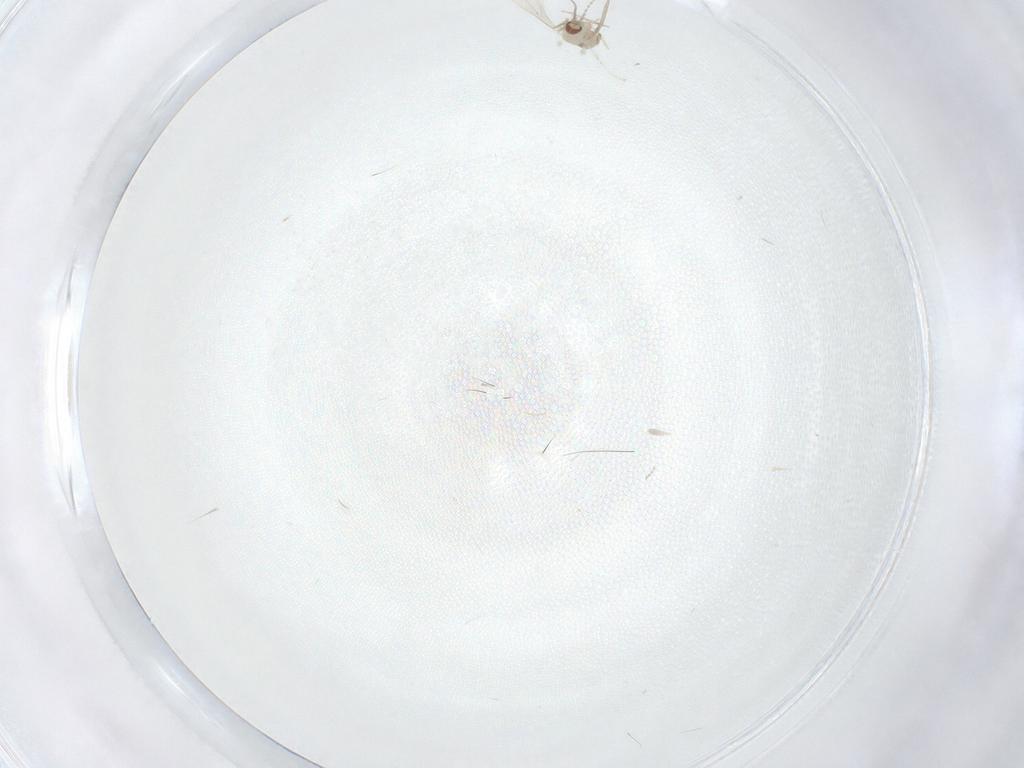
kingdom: Animalia
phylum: Arthropoda
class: Insecta
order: Diptera
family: Cecidomyiidae
